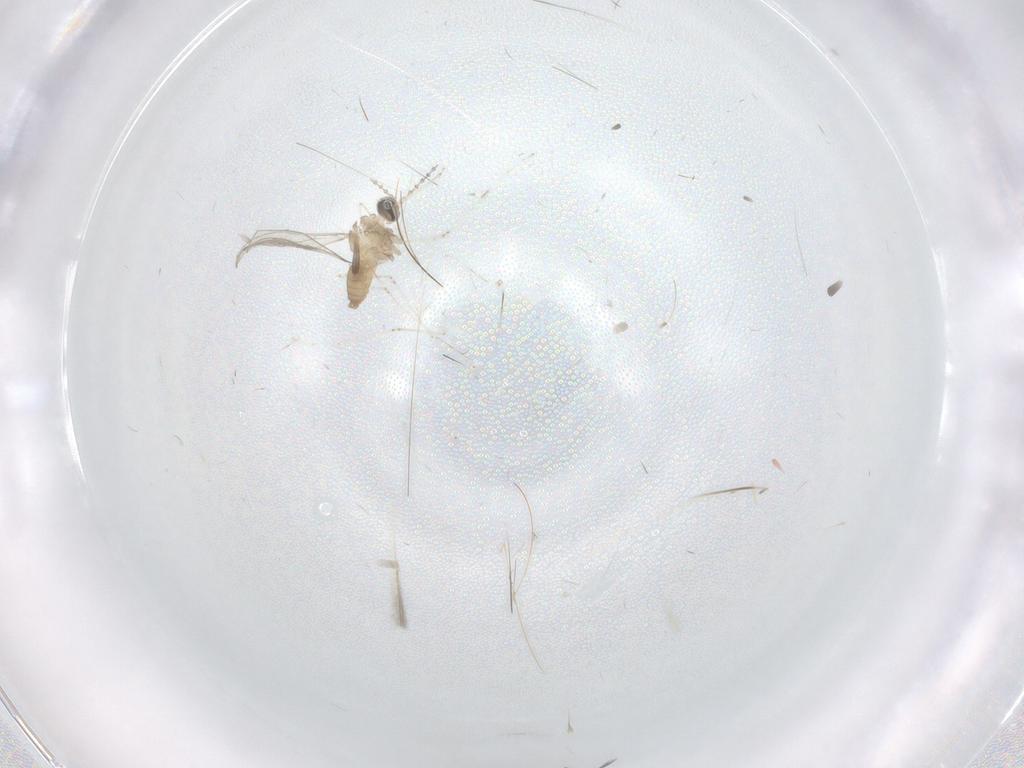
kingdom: Animalia
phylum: Arthropoda
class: Insecta
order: Diptera
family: Cecidomyiidae
